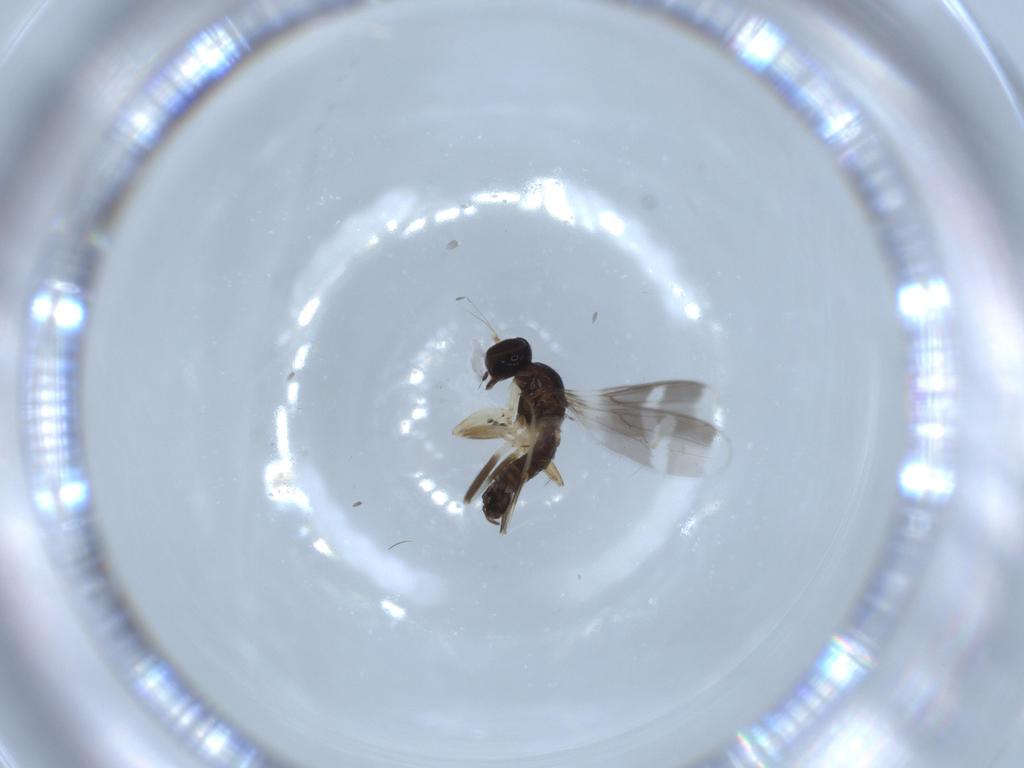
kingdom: Animalia
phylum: Arthropoda
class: Insecta
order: Diptera
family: Hybotidae
